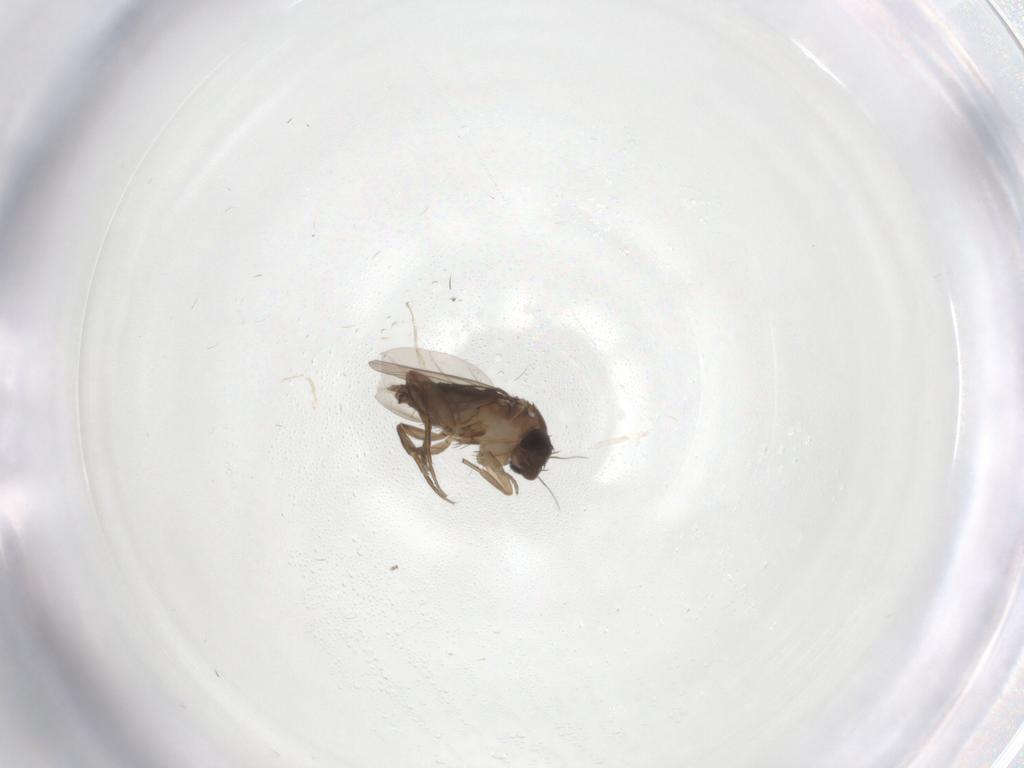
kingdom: Animalia
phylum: Arthropoda
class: Insecta
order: Diptera
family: Phoridae
